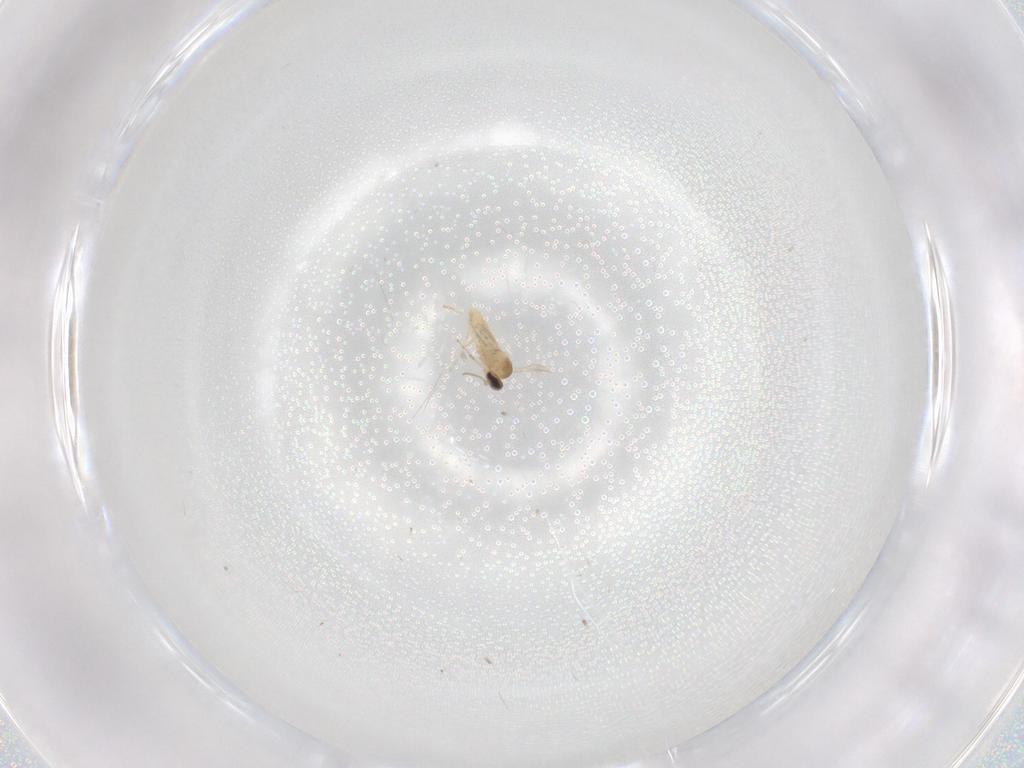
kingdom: Animalia
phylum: Arthropoda
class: Insecta
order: Diptera
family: Cecidomyiidae
